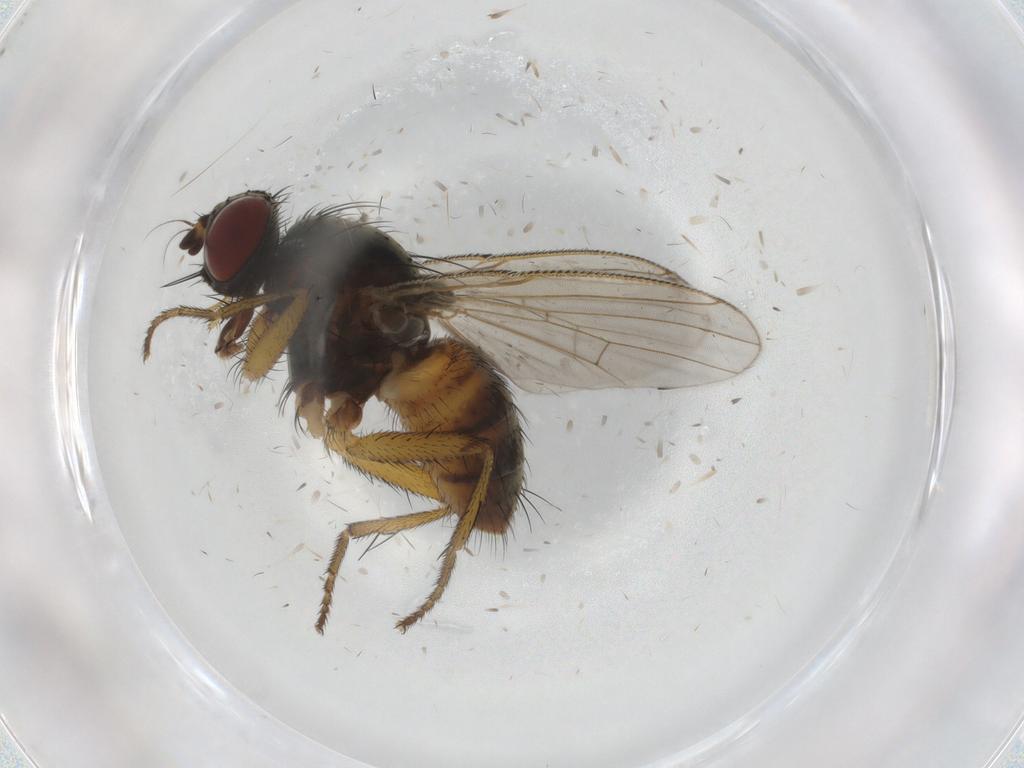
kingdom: Animalia
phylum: Arthropoda
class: Insecta
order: Diptera
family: Muscidae
